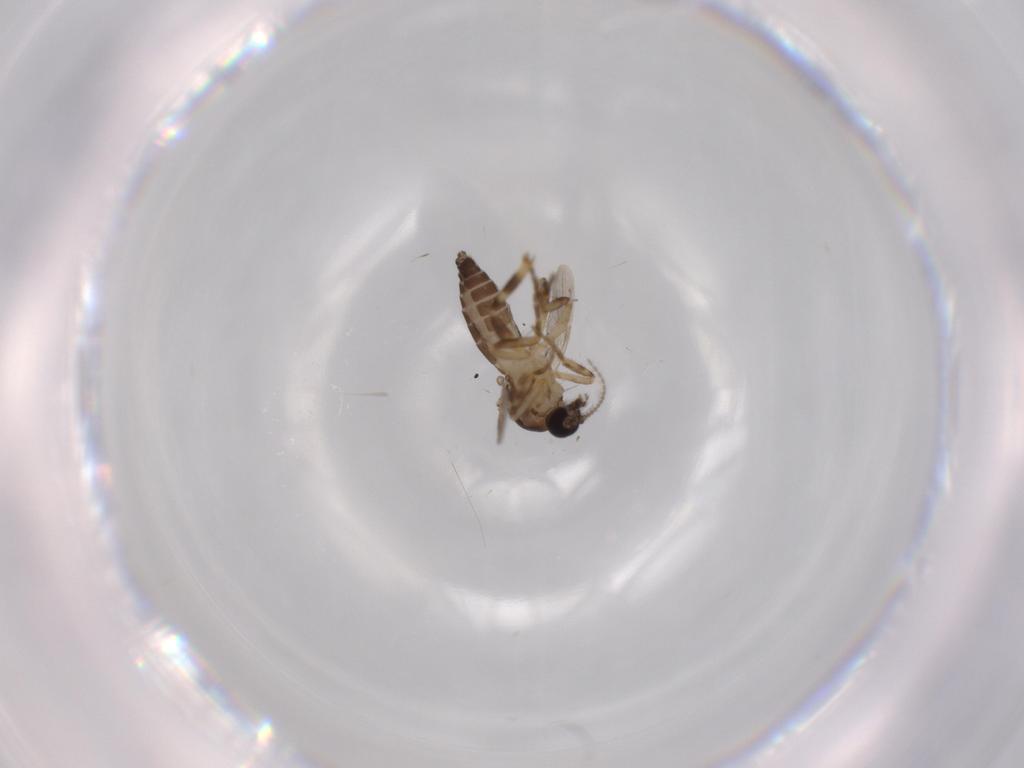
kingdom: Animalia
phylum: Arthropoda
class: Insecta
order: Diptera
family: Ceratopogonidae
